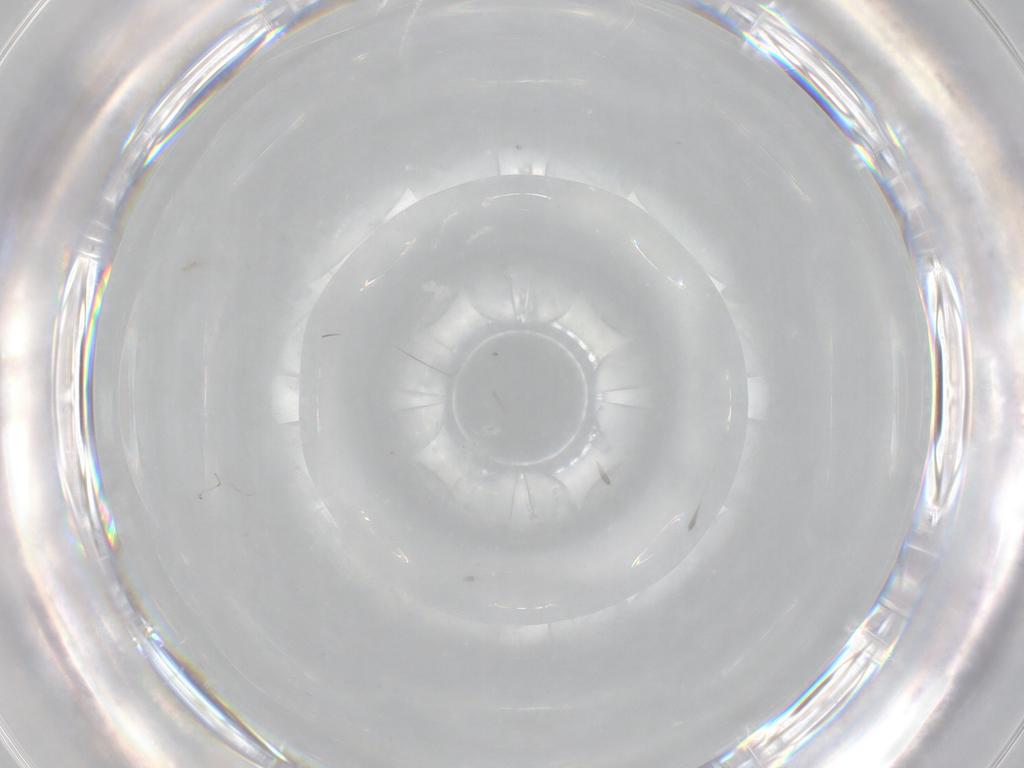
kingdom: Animalia
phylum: Arthropoda
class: Insecta
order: Diptera
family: Cecidomyiidae
